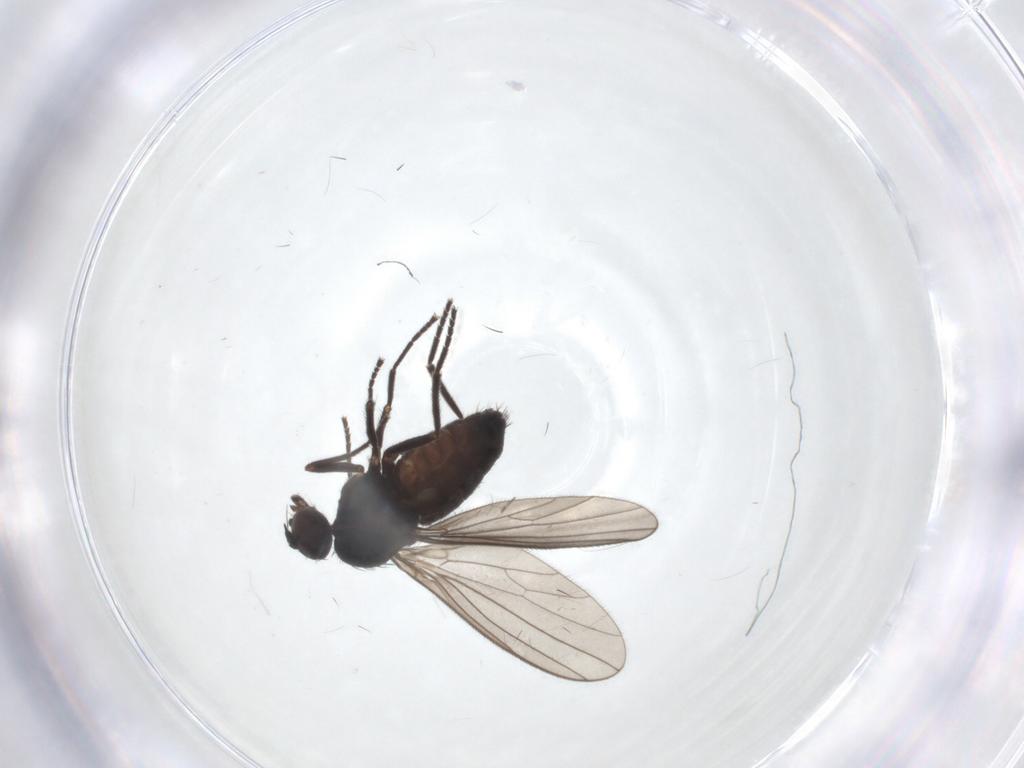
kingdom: Animalia
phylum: Arthropoda
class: Insecta
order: Diptera
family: Dolichopodidae
